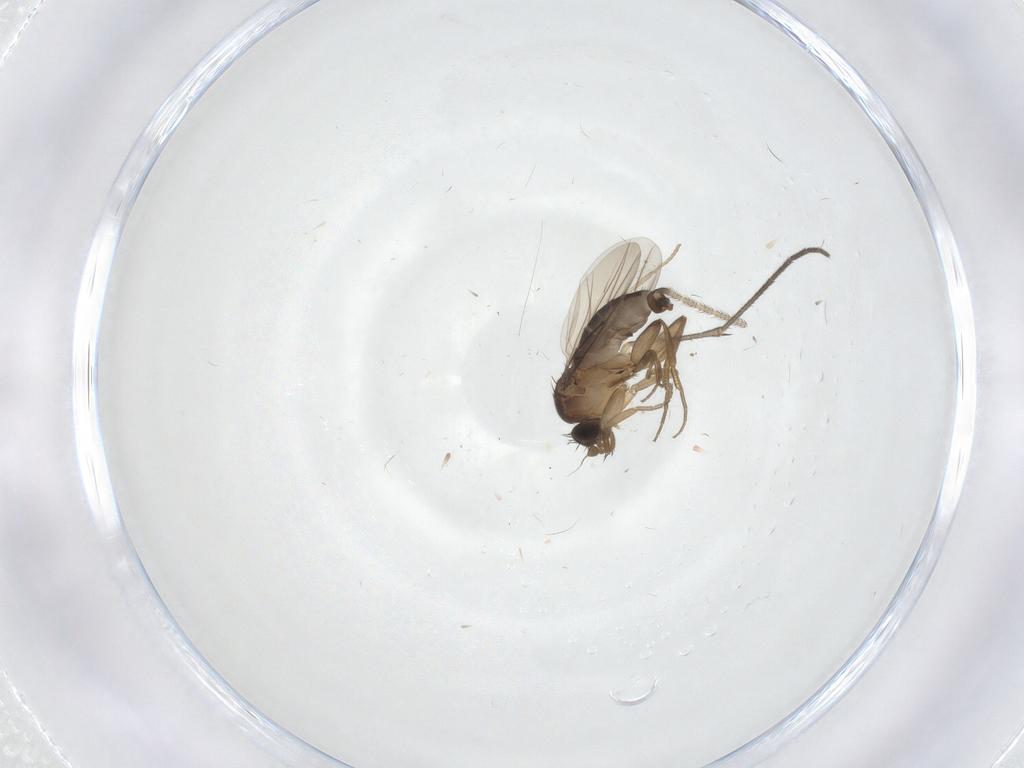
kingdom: Animalia
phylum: Arthropoda
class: Insecta
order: Diptera
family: Phoridae
